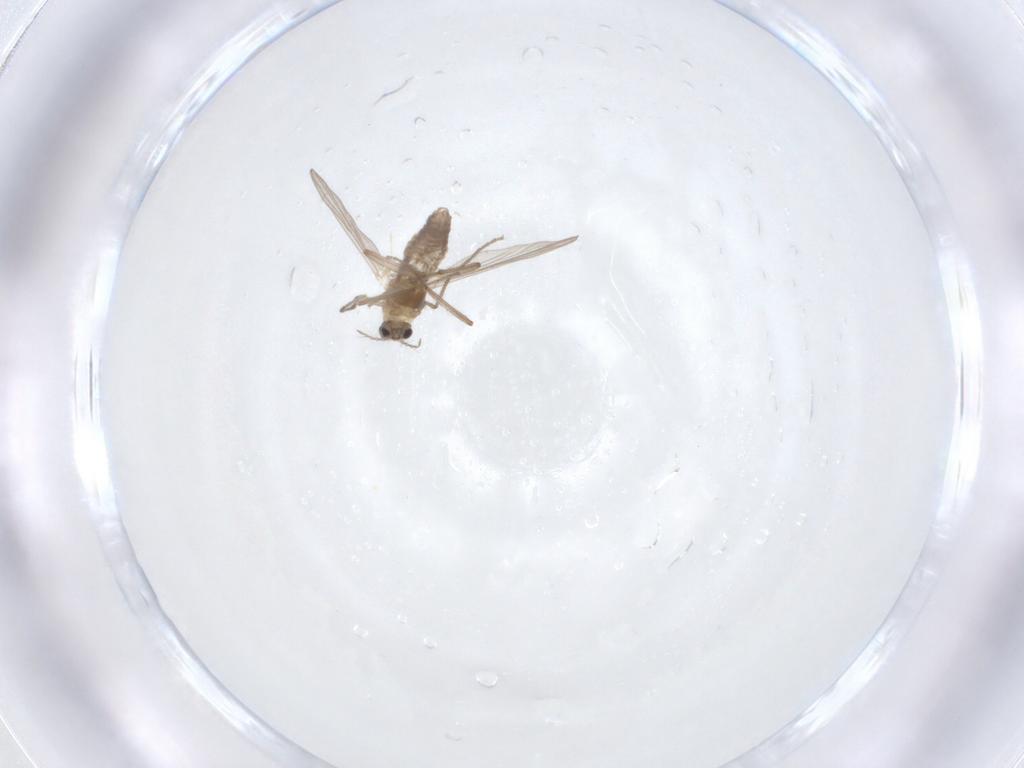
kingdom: Animalia
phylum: Arthropoda
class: Insecta
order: Diptera
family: Chironomidae
